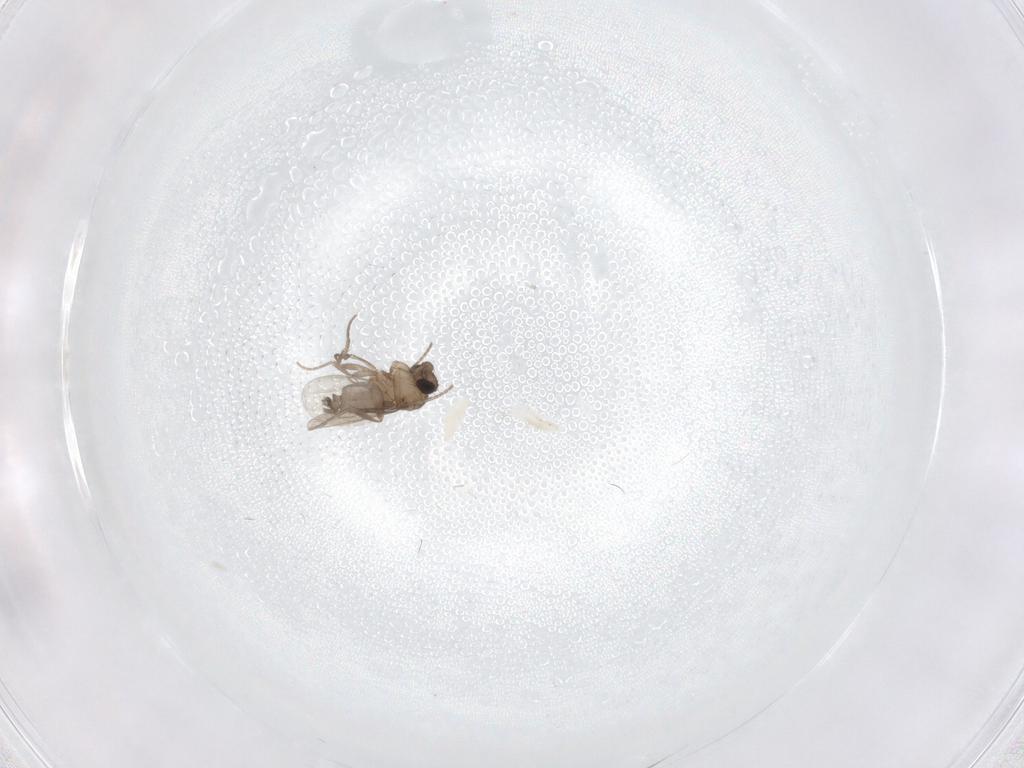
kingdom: Animalia
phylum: Arthropoda
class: Insecta
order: Diptera
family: Milichiidae
